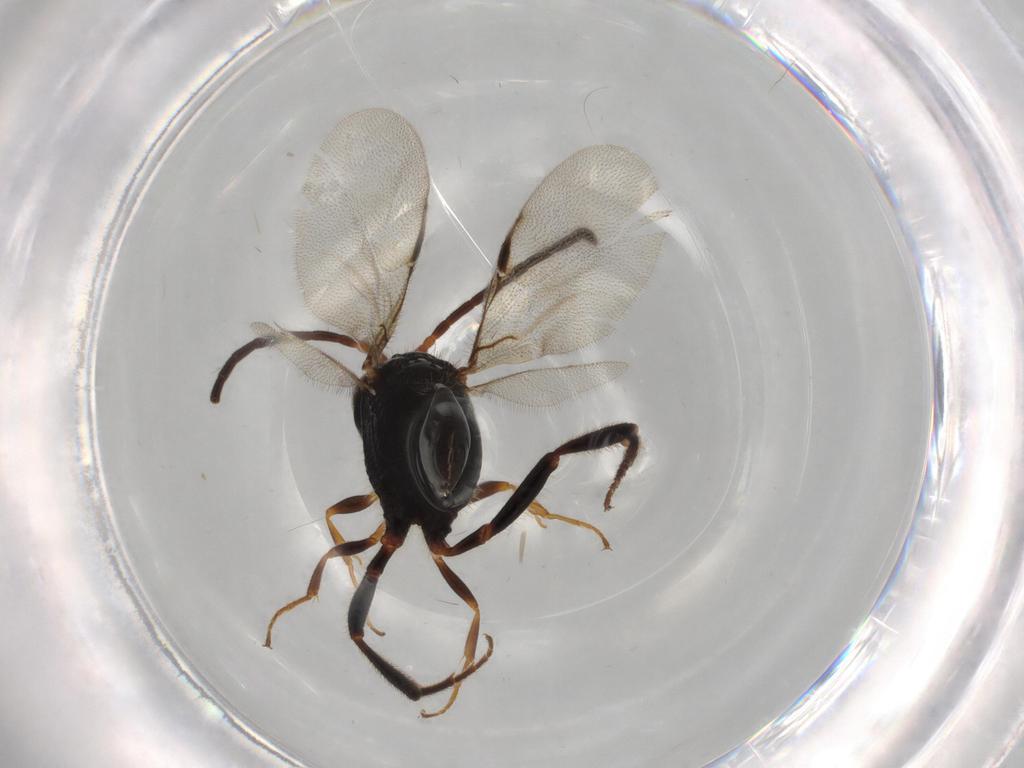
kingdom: Animalia
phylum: Arthropoda
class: Insecta
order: Hymenoptera
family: Evaniidae
